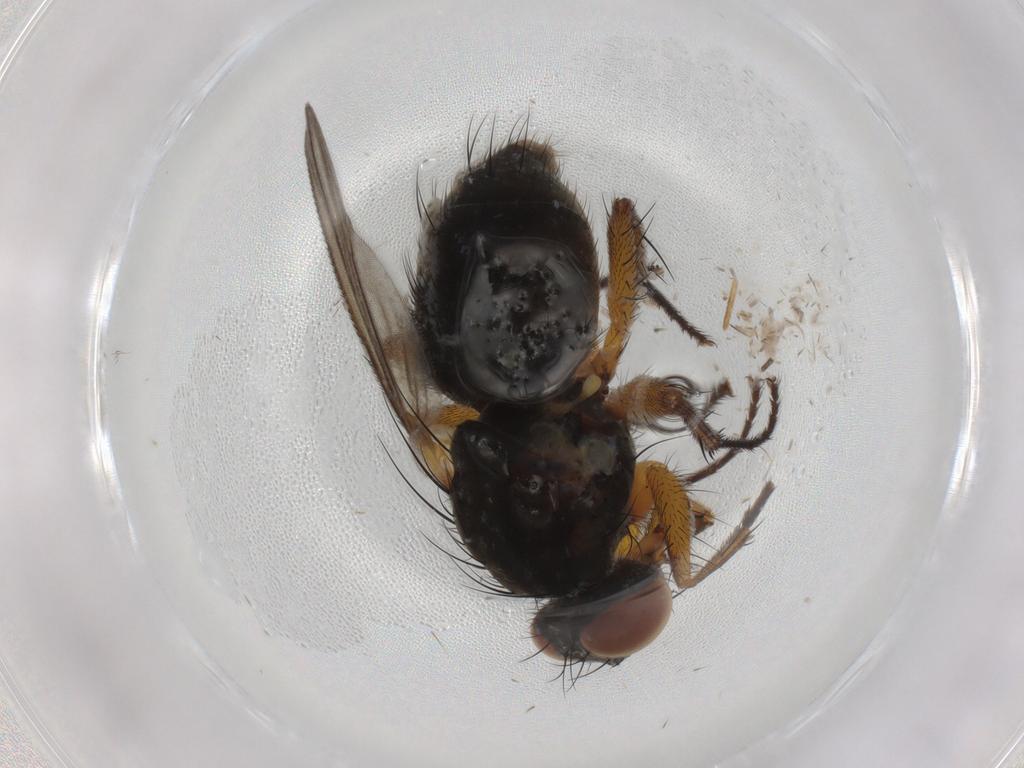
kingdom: Animalia
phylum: Arthropoda
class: Insecta
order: Diptera
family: Muscidae
